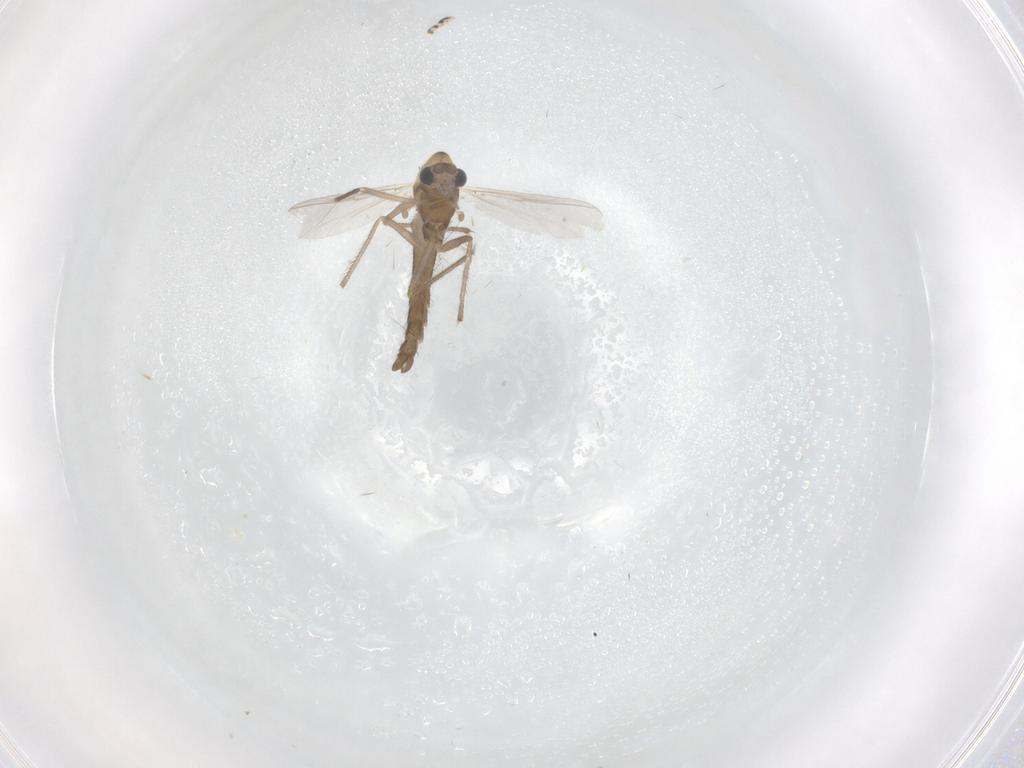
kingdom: Animalia
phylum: Arthropoda
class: Insecta
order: Diptera
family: Chironomidae
